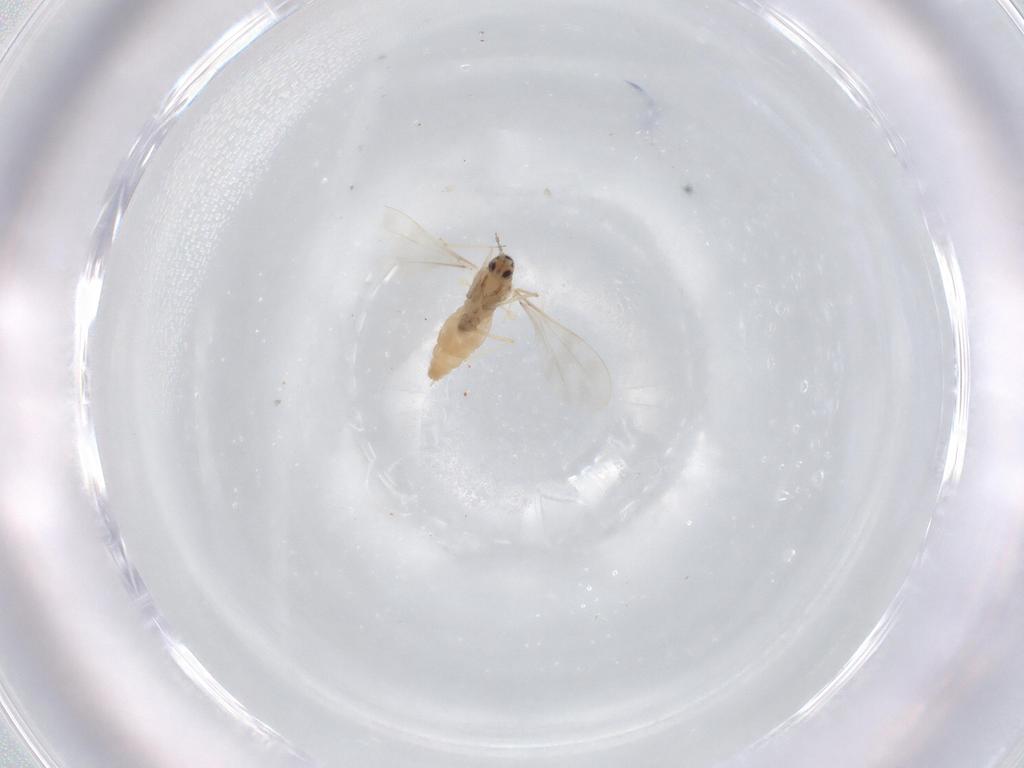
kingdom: Animalia
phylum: Arthropoda
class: Insecta
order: Diptera
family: Cecidomyiidae
